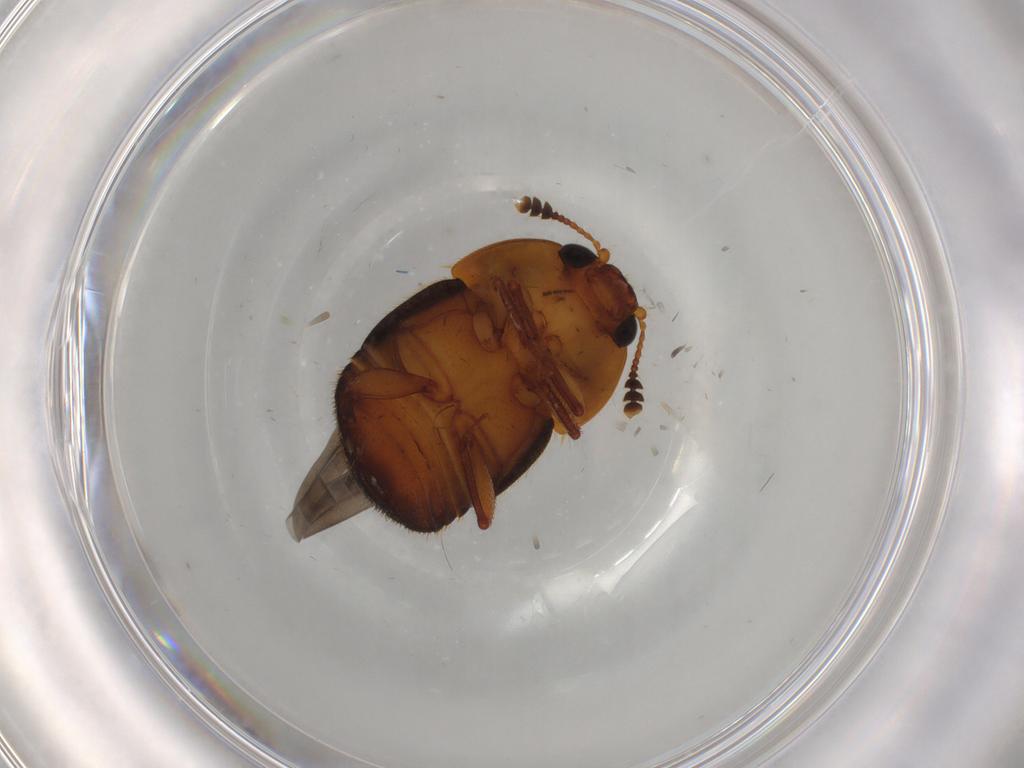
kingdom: Animalia
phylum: Arthropoda
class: Insecta
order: Coleoptera
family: Nitidulidae
